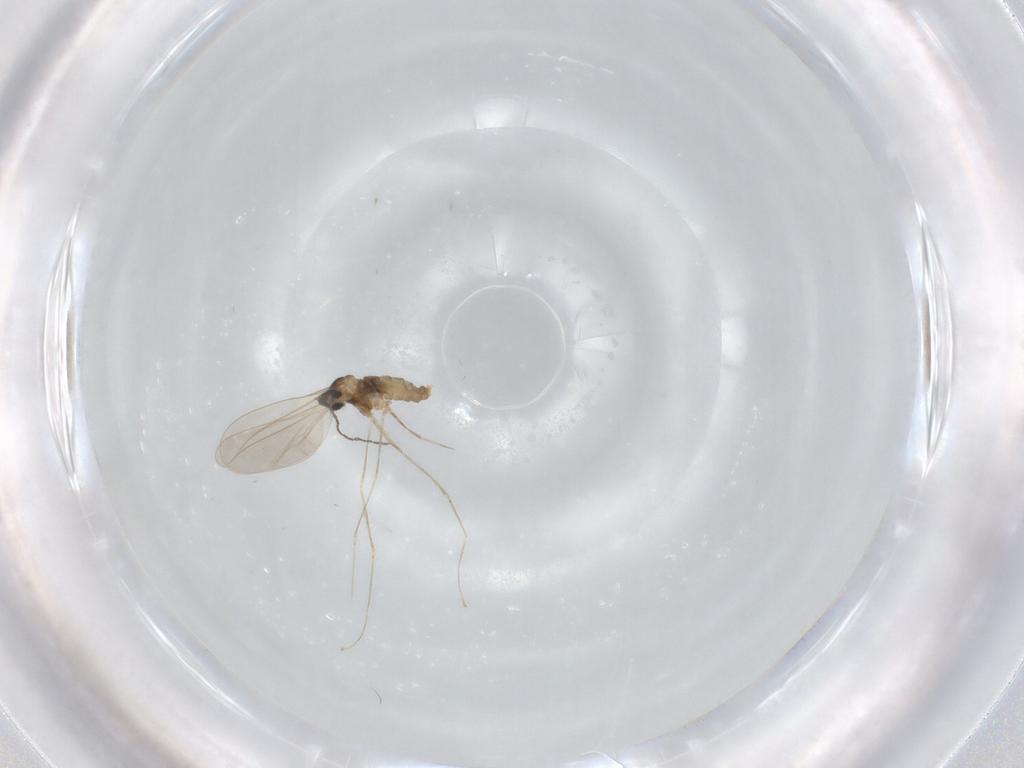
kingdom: Animalia
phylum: Arthropoda
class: Insecta
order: Diptera
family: Cecidomyiidae
